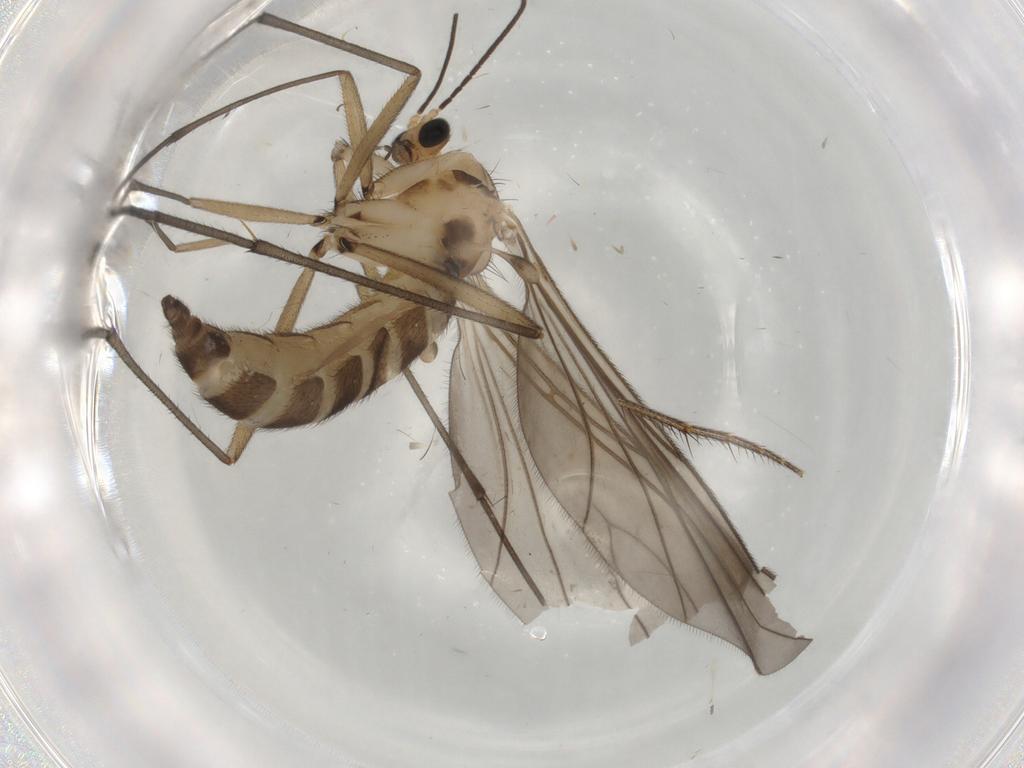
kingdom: Animalia
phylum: Arthropoda
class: Insecta
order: Diptera
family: Sciaridae
